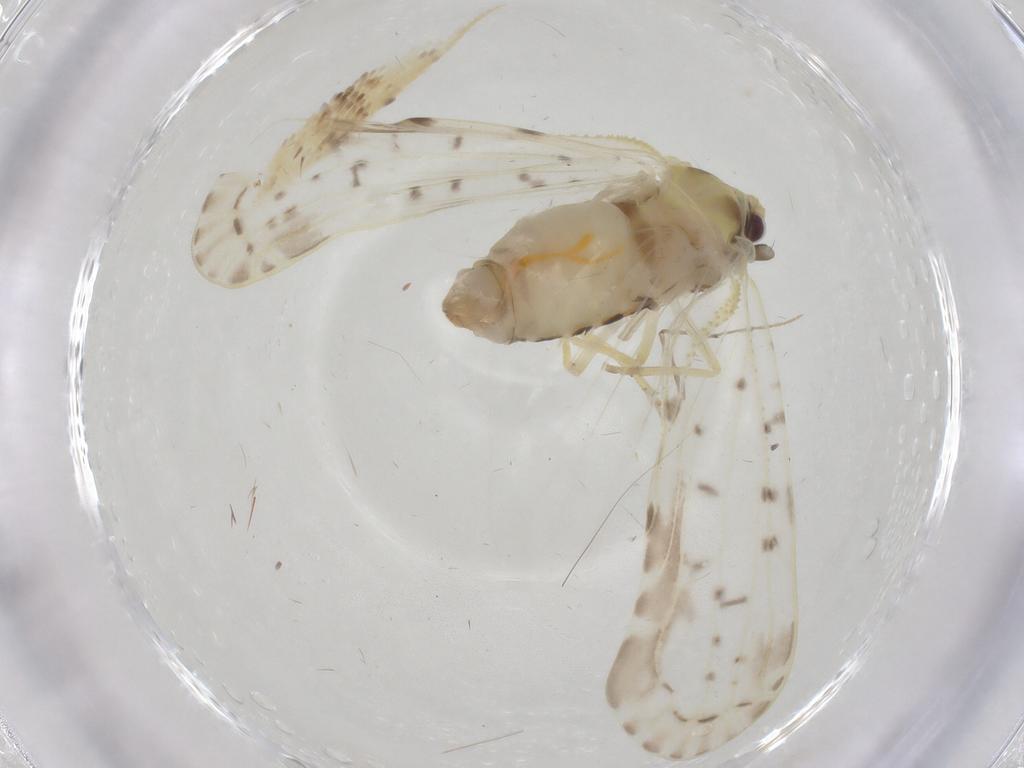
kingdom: Animalia
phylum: Arthropoda
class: Insecta
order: Hemiptera
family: Derbidae
